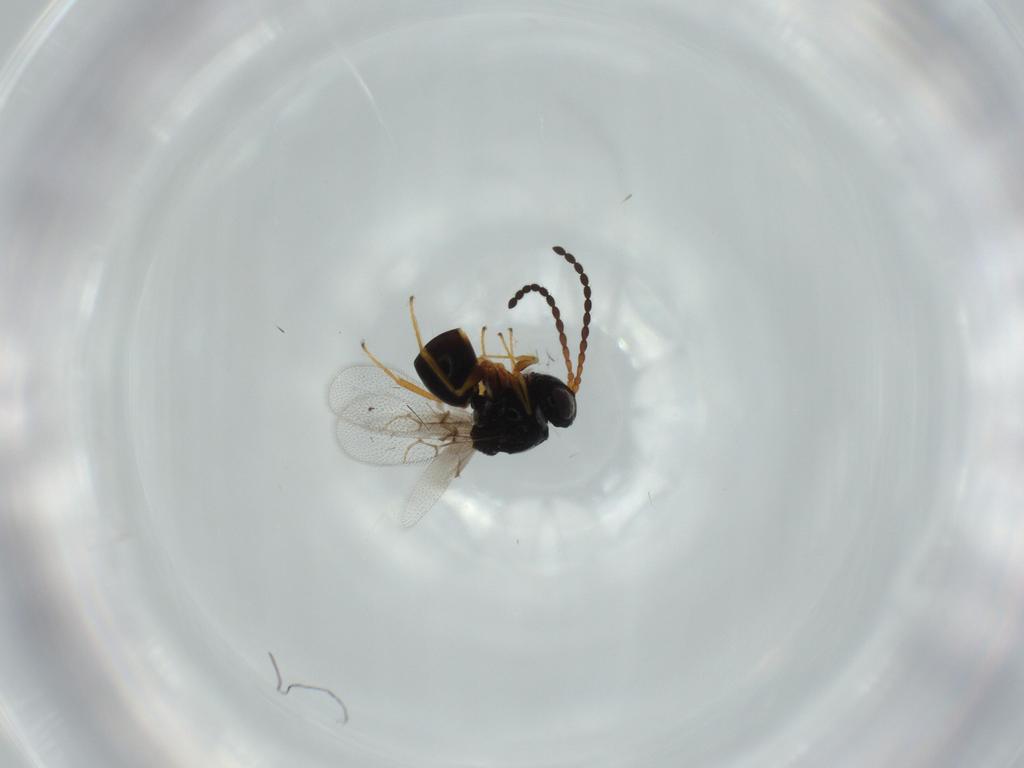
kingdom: Animalia
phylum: Arthropoda
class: Insecta
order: Hymenoptera
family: Figitidae
